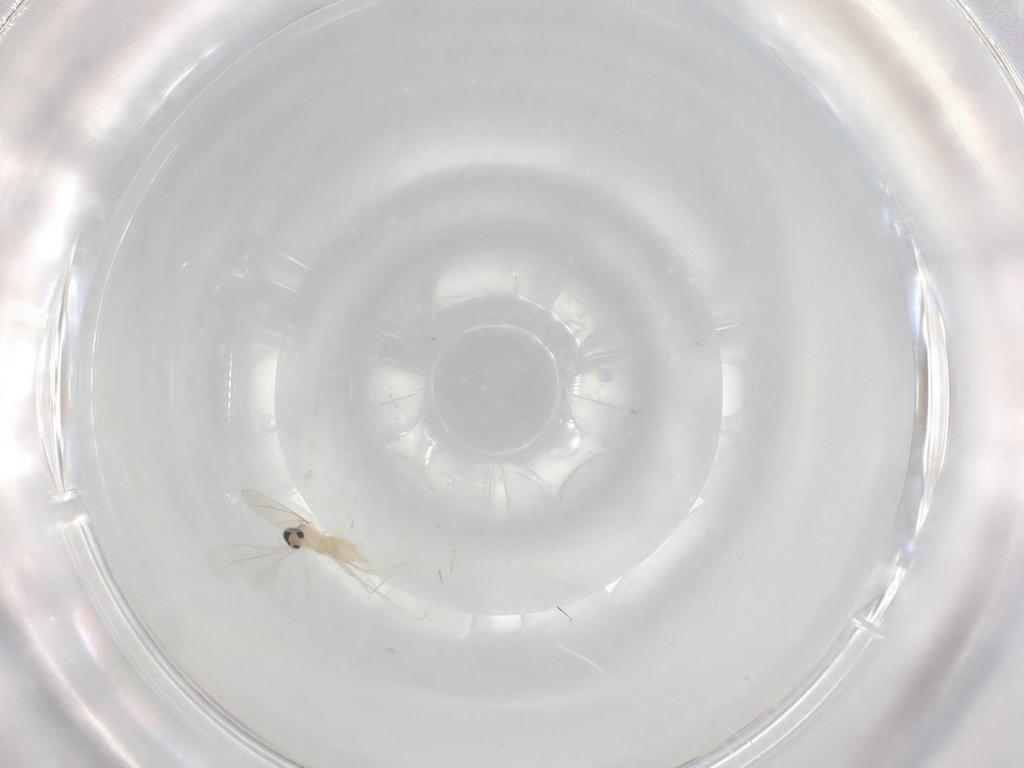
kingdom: Animalia
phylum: Arthropoda
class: Insecta
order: Diptera
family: Cecidomyiidae
